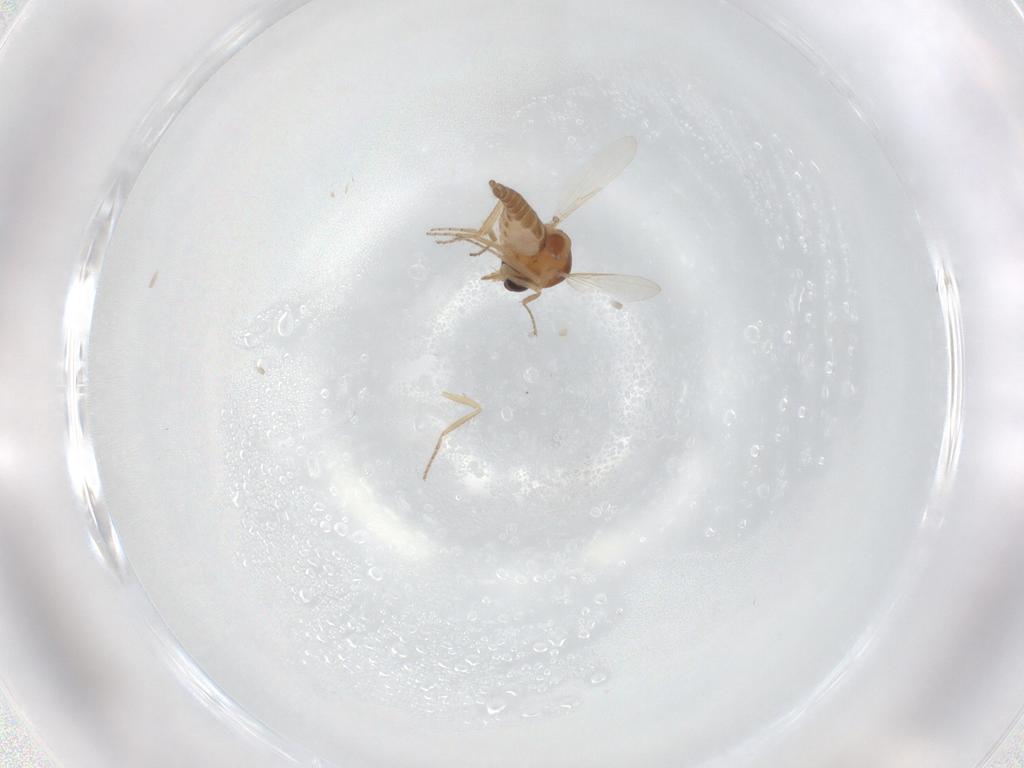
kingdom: Animalia
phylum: Arthropoda
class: Insecta
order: Diptera
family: Ceratopogonidae
